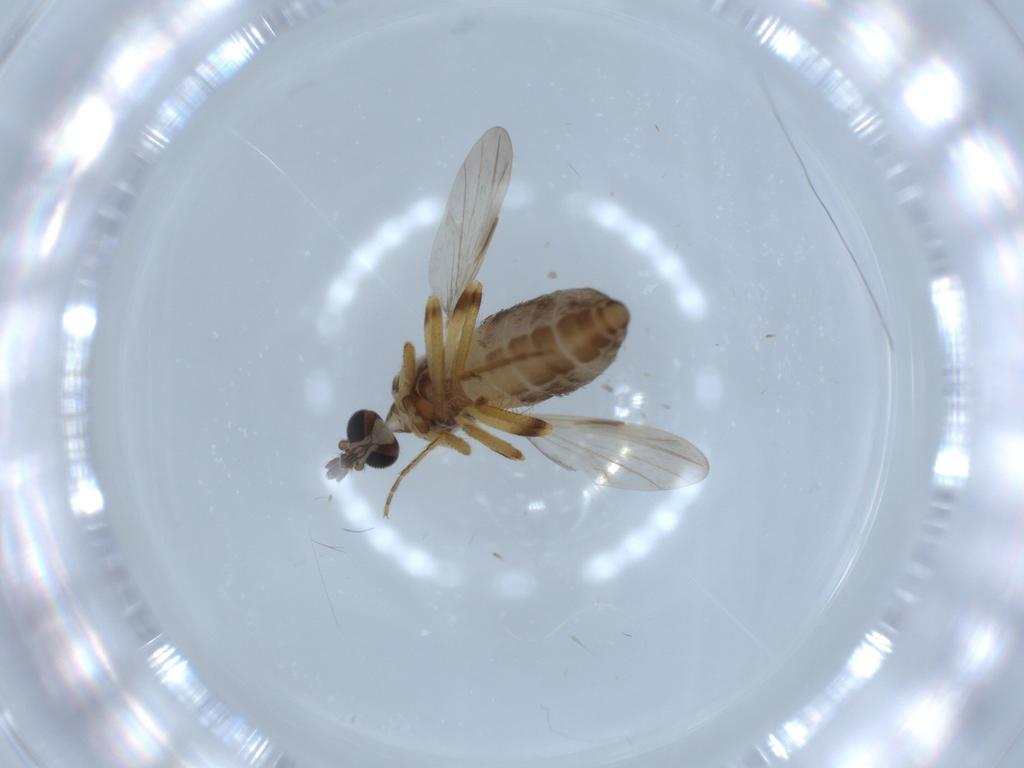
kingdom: Animalia
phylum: Arthropoda
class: Insecta
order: Diptera
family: Ceratopogonidae
